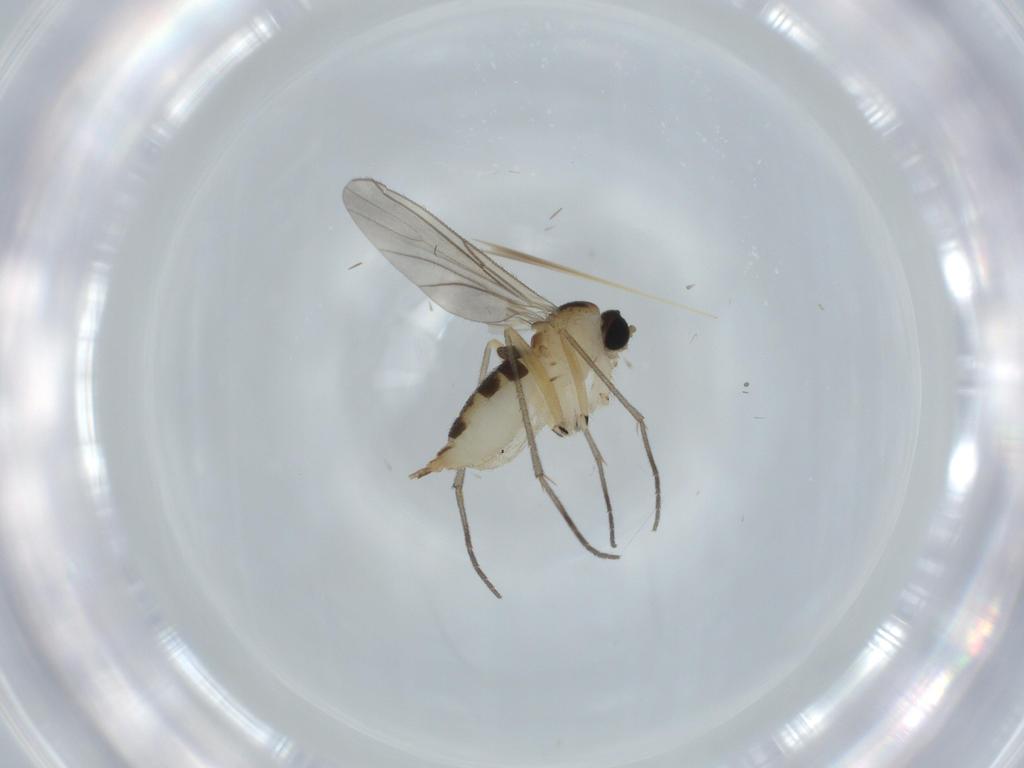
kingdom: Animalia
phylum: Arthropoda
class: Insecta
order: Diptera
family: Sciaridae
